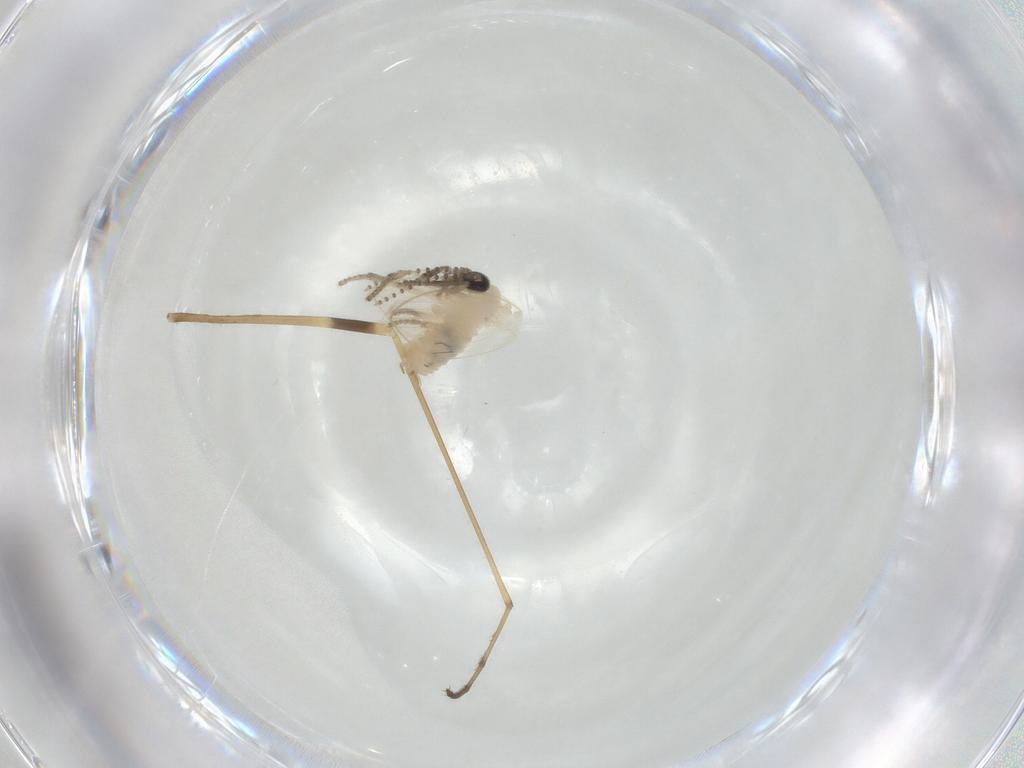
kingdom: Animalia
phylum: Arthropoda
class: Insecta
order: Diptera
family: Limoniidae
